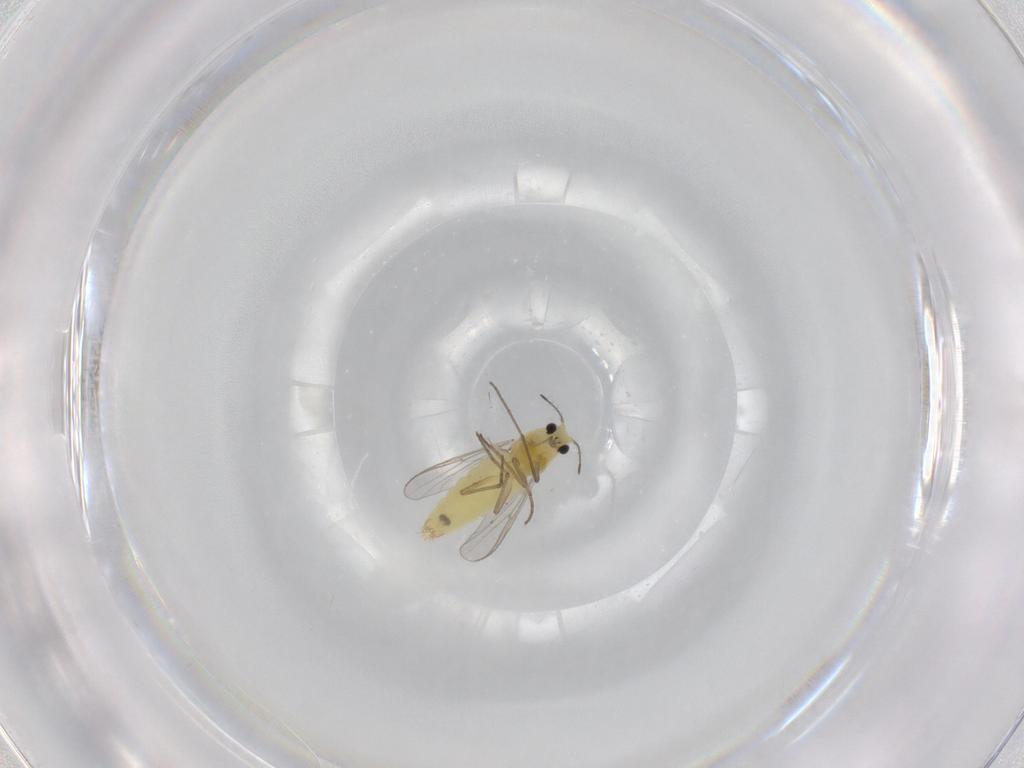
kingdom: Animalia
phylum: Arthropoda
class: Insecta
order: Diptera
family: Chironomidae
